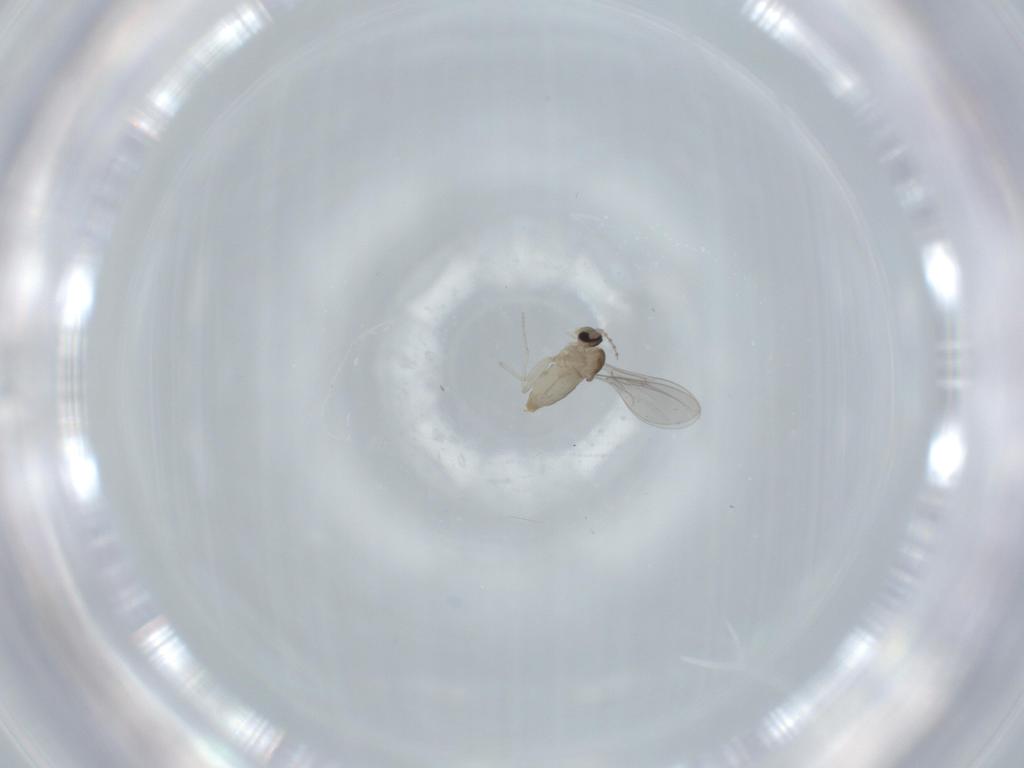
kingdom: Animalia
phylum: Arthropoda
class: Insecta
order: Diptera
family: Cecidomyiidae
